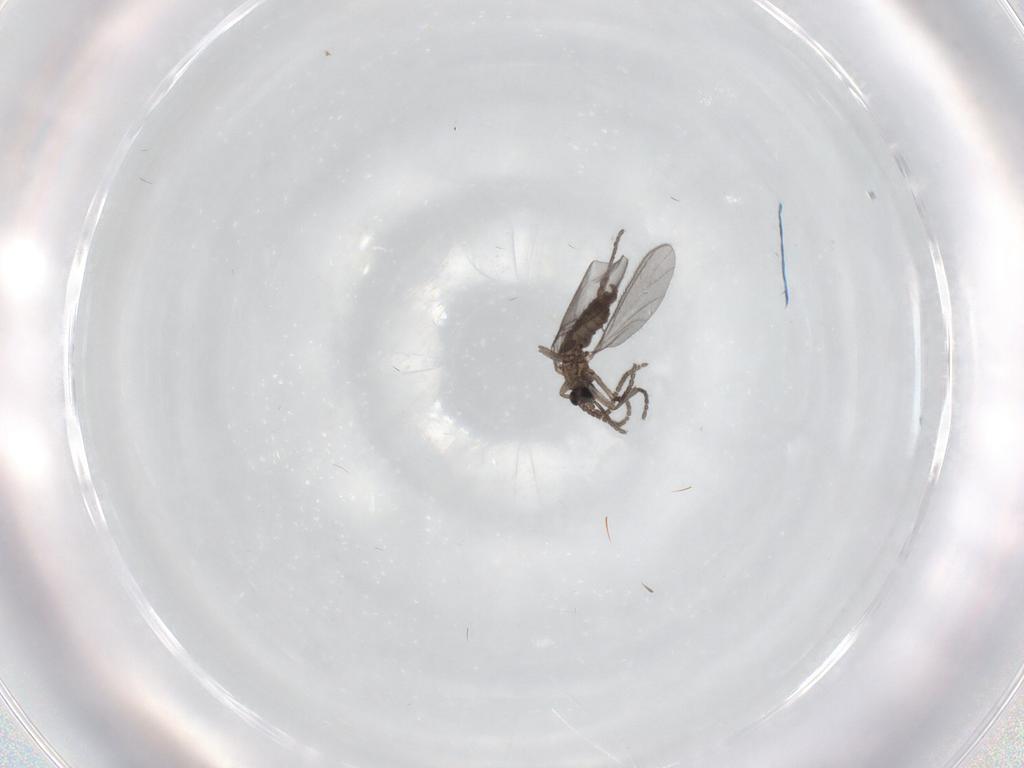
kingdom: Animalia
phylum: Arthropoda
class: Insecta
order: Diptera
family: Sciaridae
